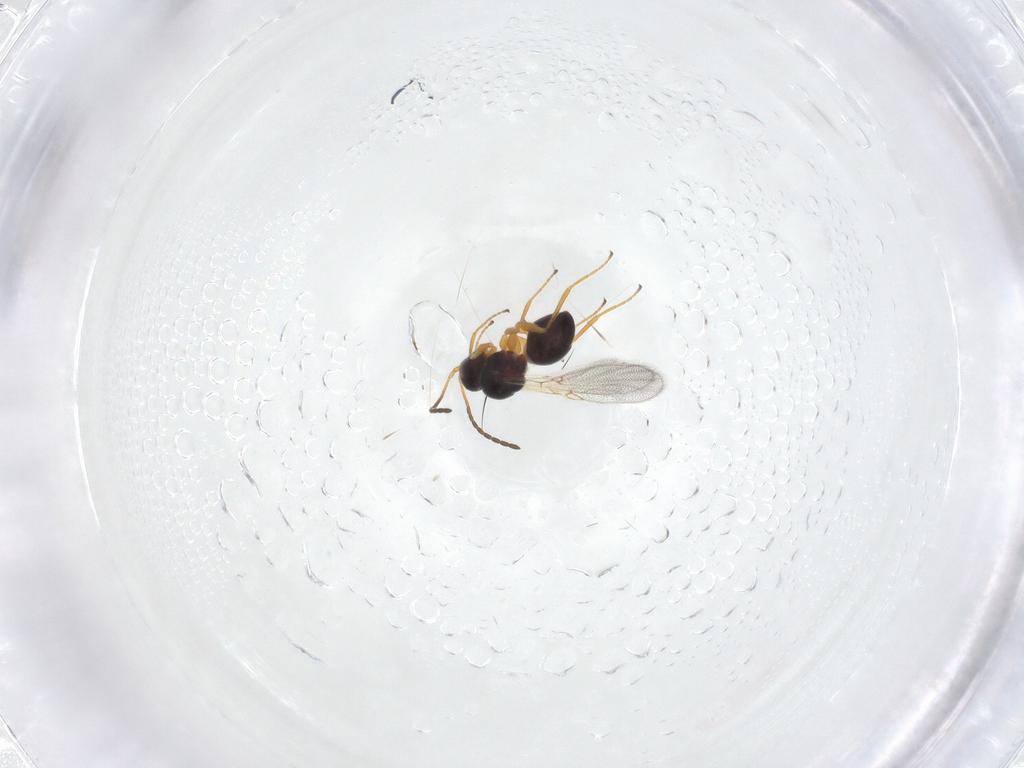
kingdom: Animalia
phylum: Arthropoda
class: Insecta
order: Hymenoptera
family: Figitidae
